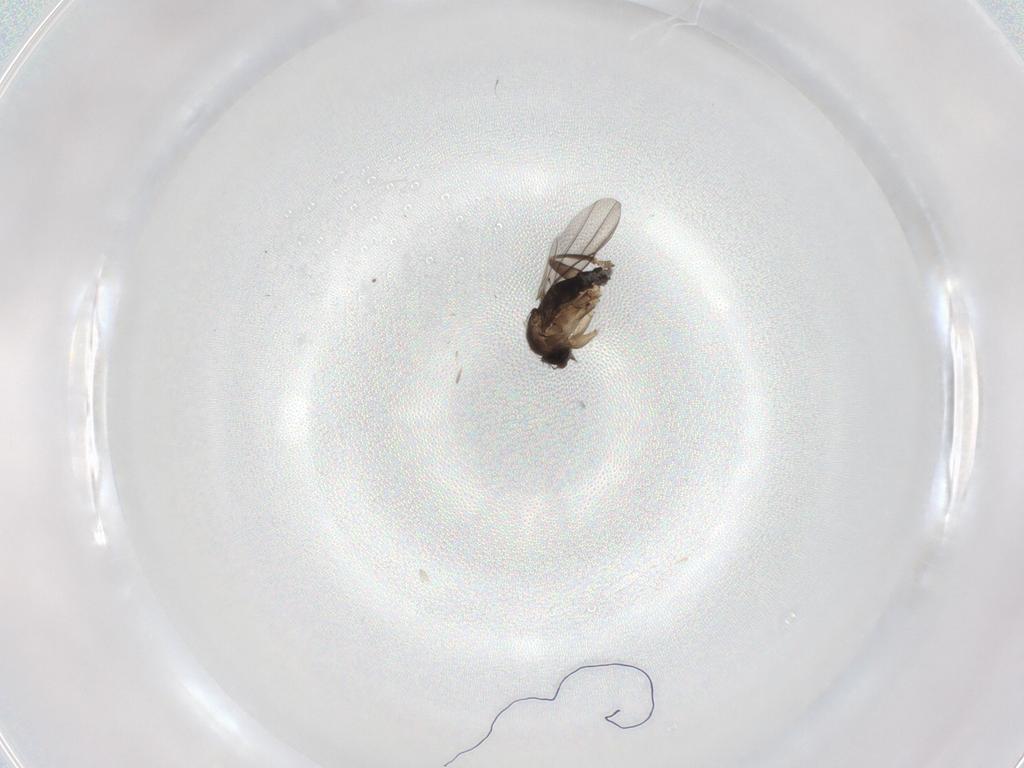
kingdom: Animalia
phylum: Arthropoda
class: Insecta
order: Diptera
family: Phoridae
